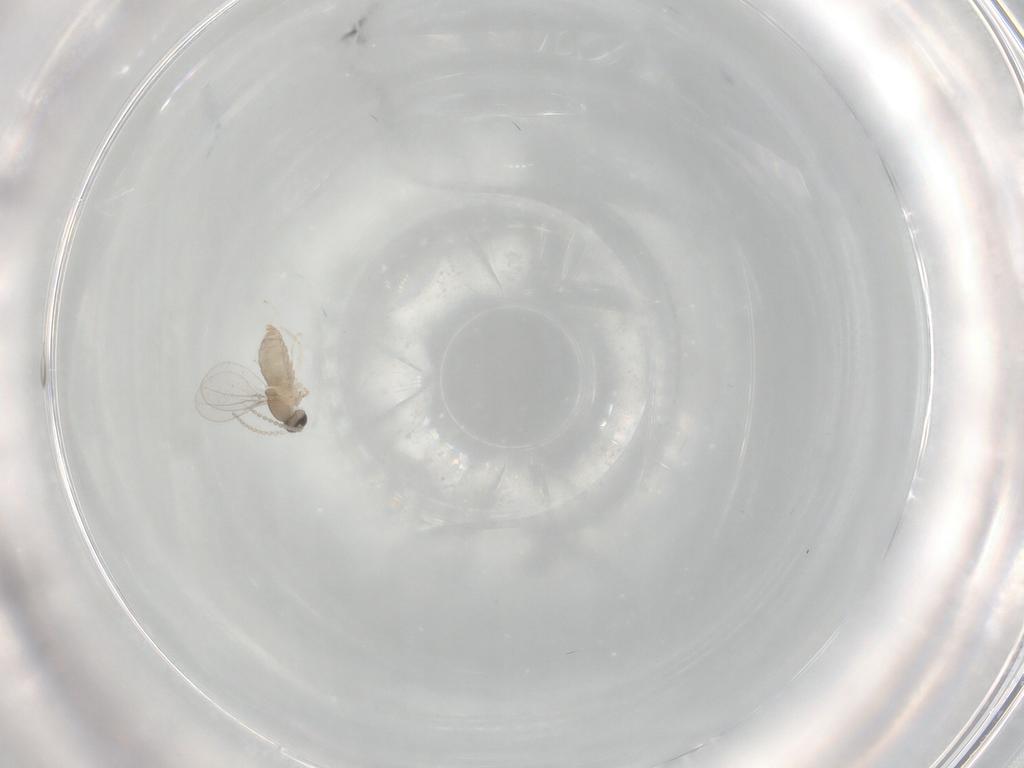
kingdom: Animalia
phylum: Arthropoda
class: Insecta
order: Diptera
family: Cecidomyiidae
